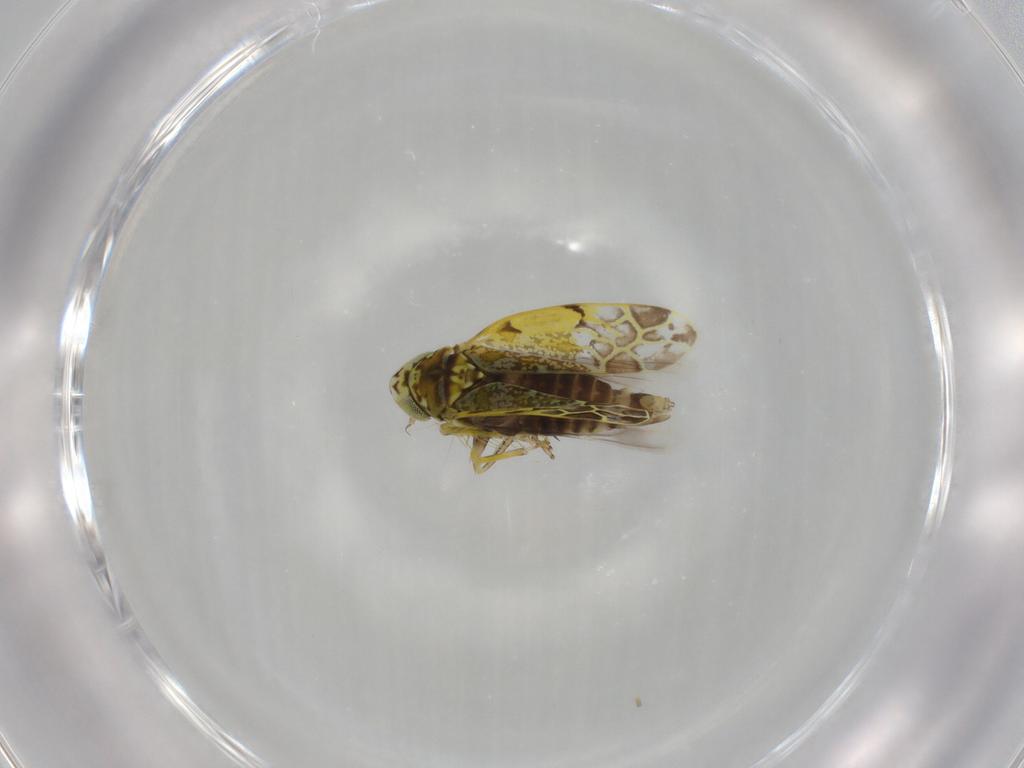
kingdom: Animalia
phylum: Arthropoda
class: Insecta
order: Hemiptera
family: Cicadellidae
